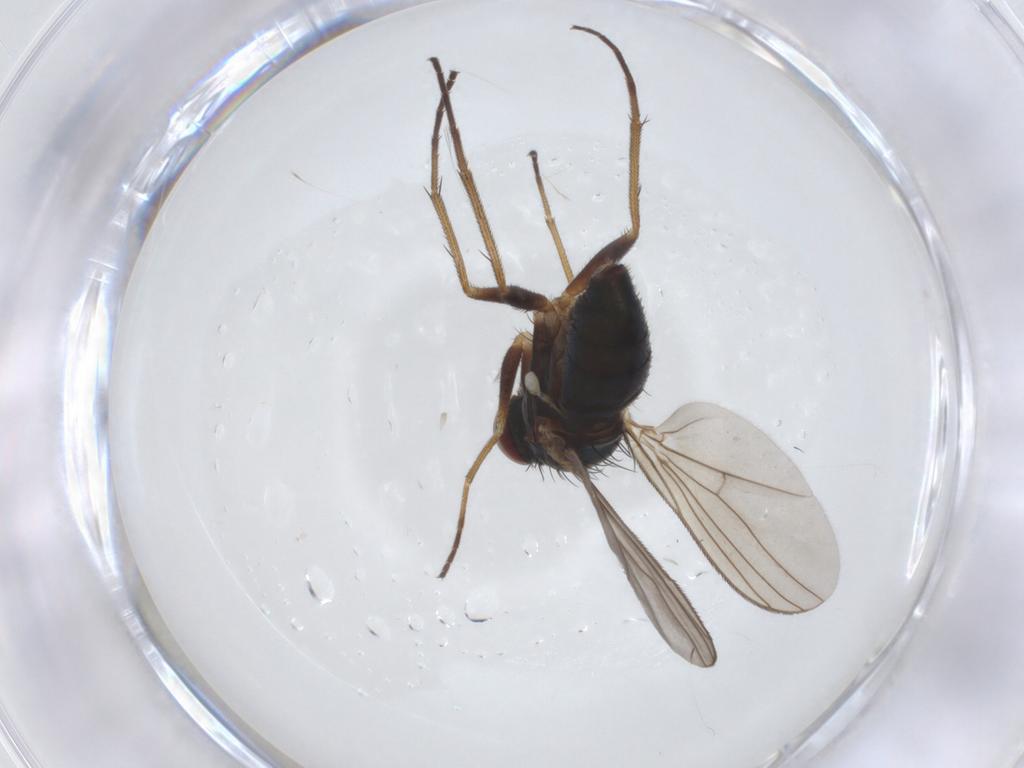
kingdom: Animalia
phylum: Arthropoda
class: Insecta
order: Diptera
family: Dolichopodidae
